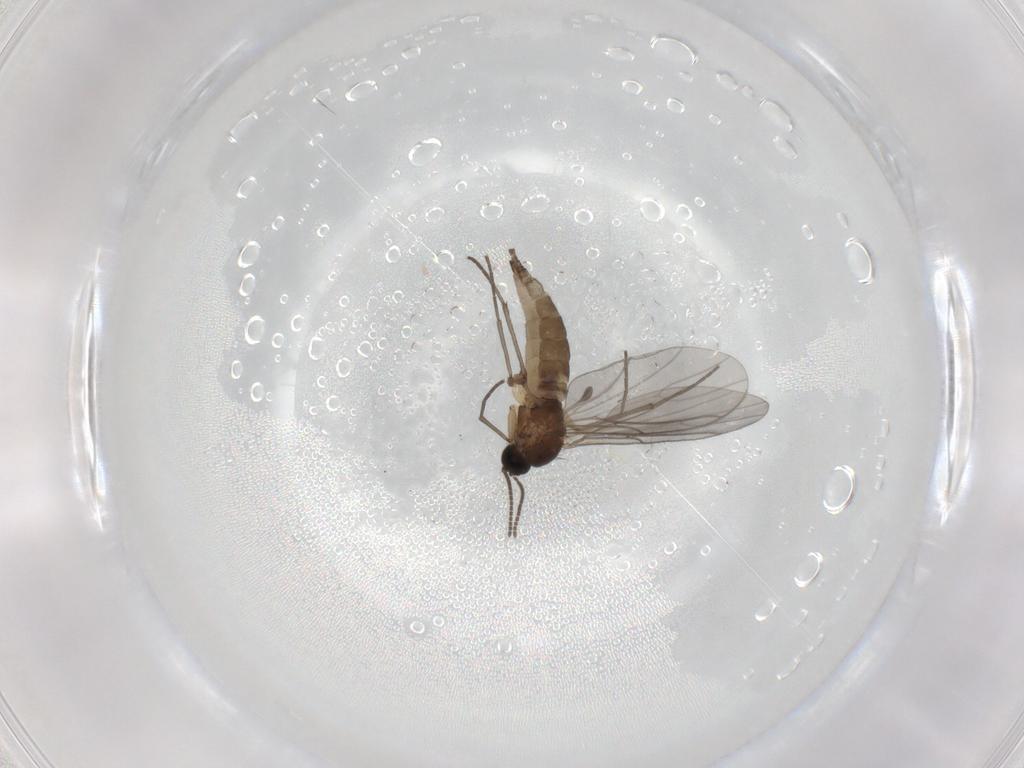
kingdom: Animalia
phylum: Arthropoda
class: Insecta
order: Diptera
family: Sciaridae
